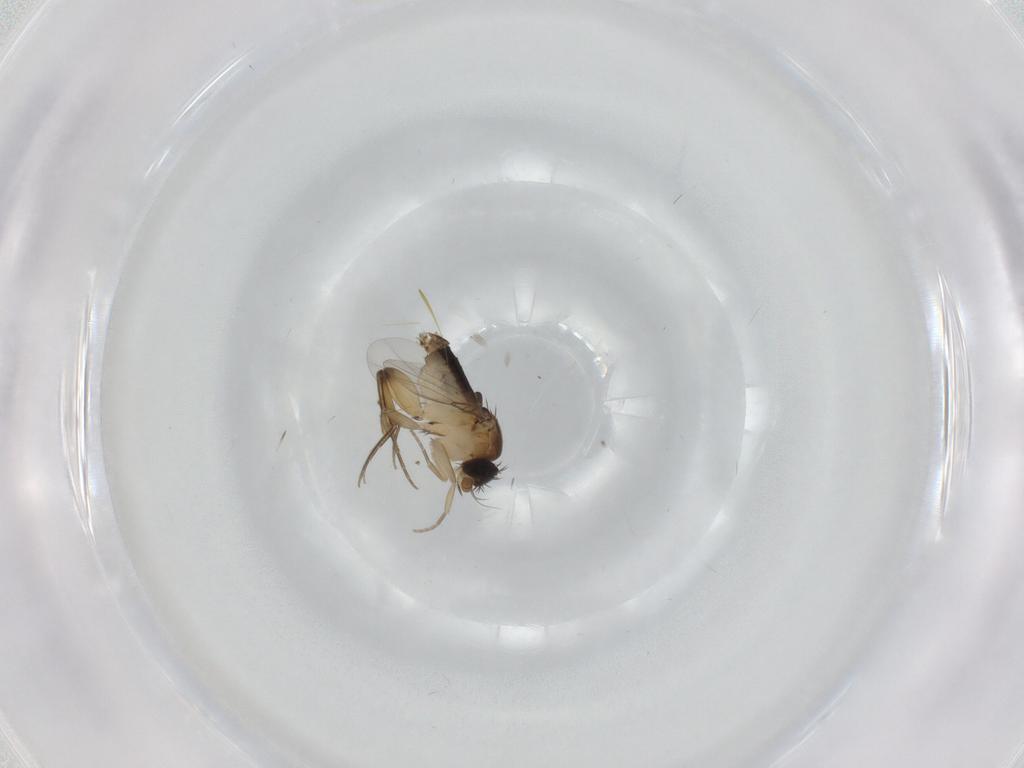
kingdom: Animalia
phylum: Arthropoda
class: Insecta
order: Diptera
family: Phoridae
